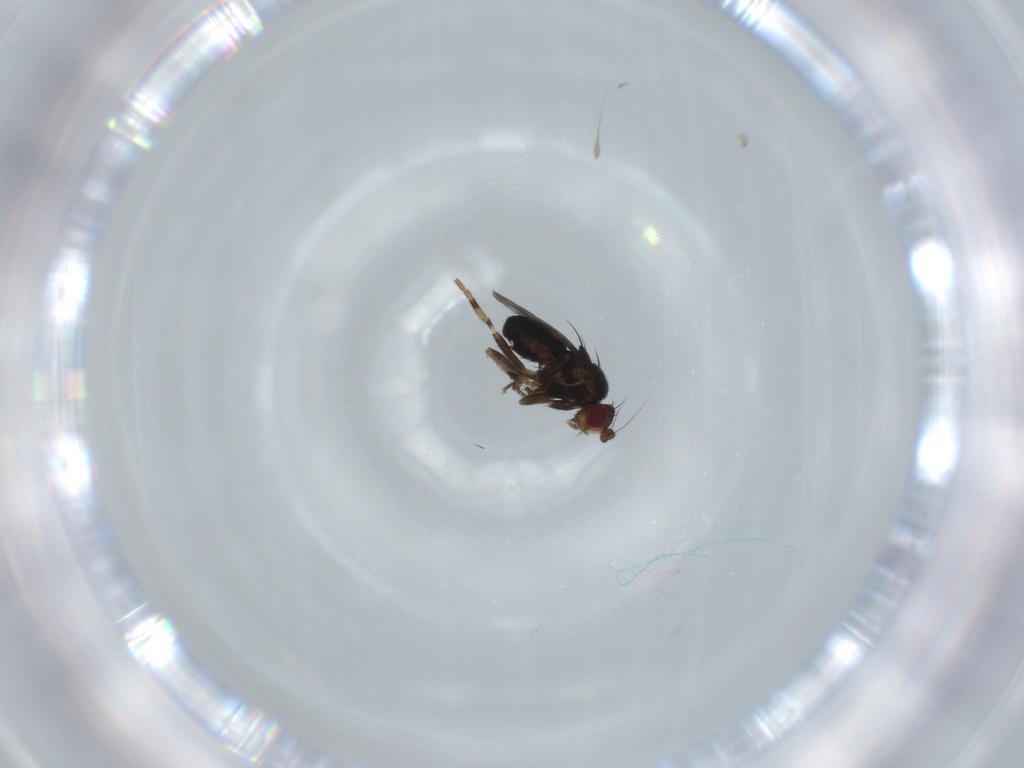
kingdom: Animalia
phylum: Arthropoda
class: Insecta
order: Diptera
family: Sphaeroceridae
